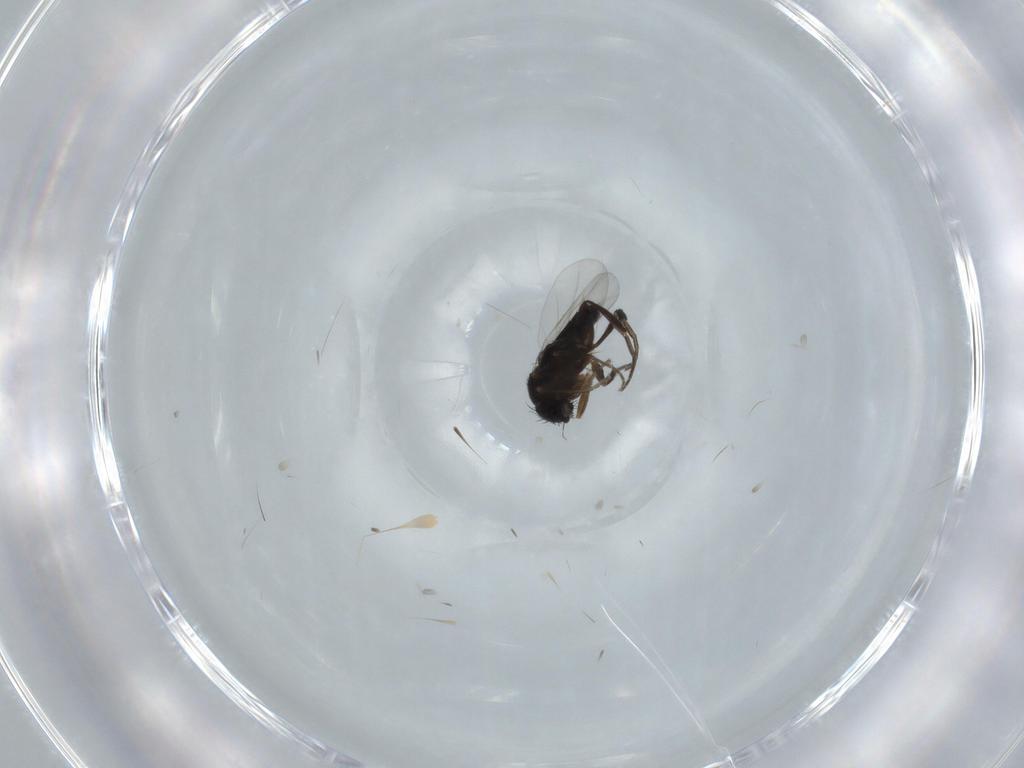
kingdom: Animalia
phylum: Arthropoda
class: Insecta
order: Diptera
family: Phoridae
